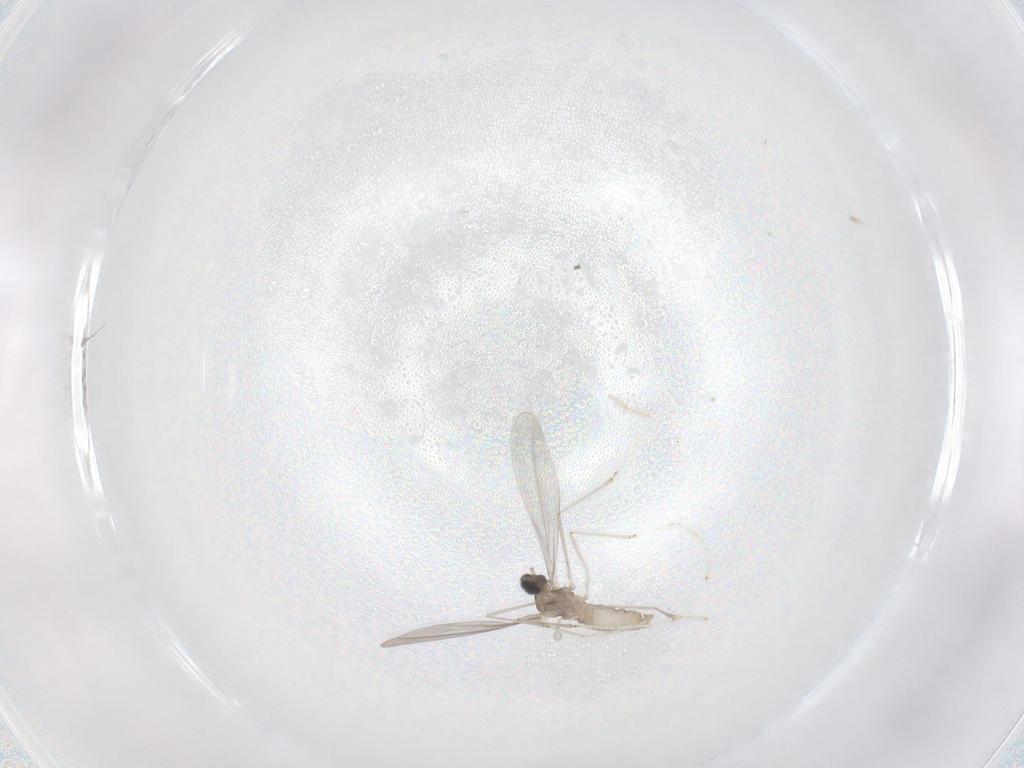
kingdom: Animalia
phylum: Arthropoda
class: Insecta
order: Diptera
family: Cecidomyiidae
